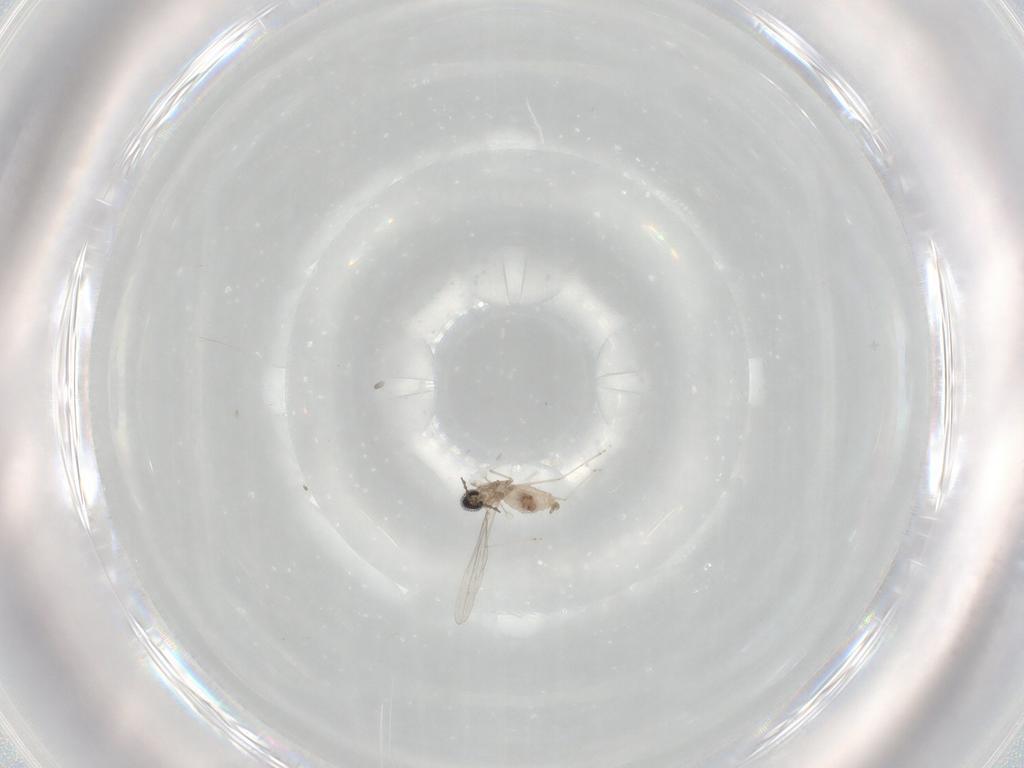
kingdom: Animalia
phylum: Arthropoda
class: Insecta
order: Diptera
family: Cecidomyiidae
